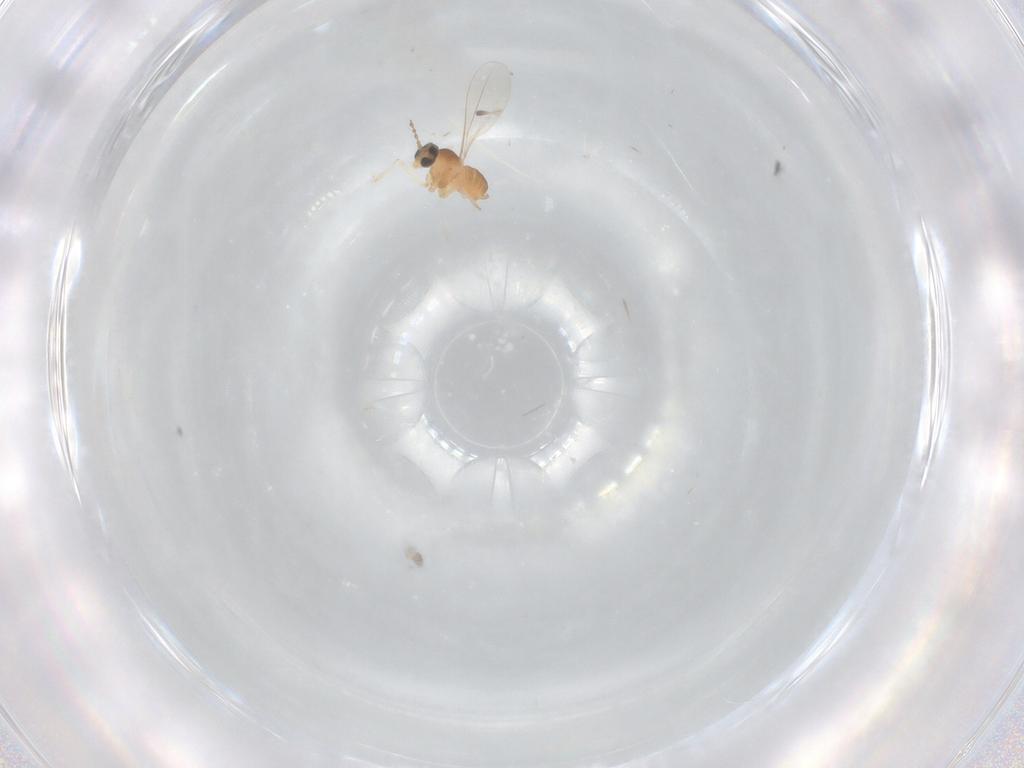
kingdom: Animalia
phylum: Arthropoda
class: Insecta
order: Diptera
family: Cecidomyiidae
